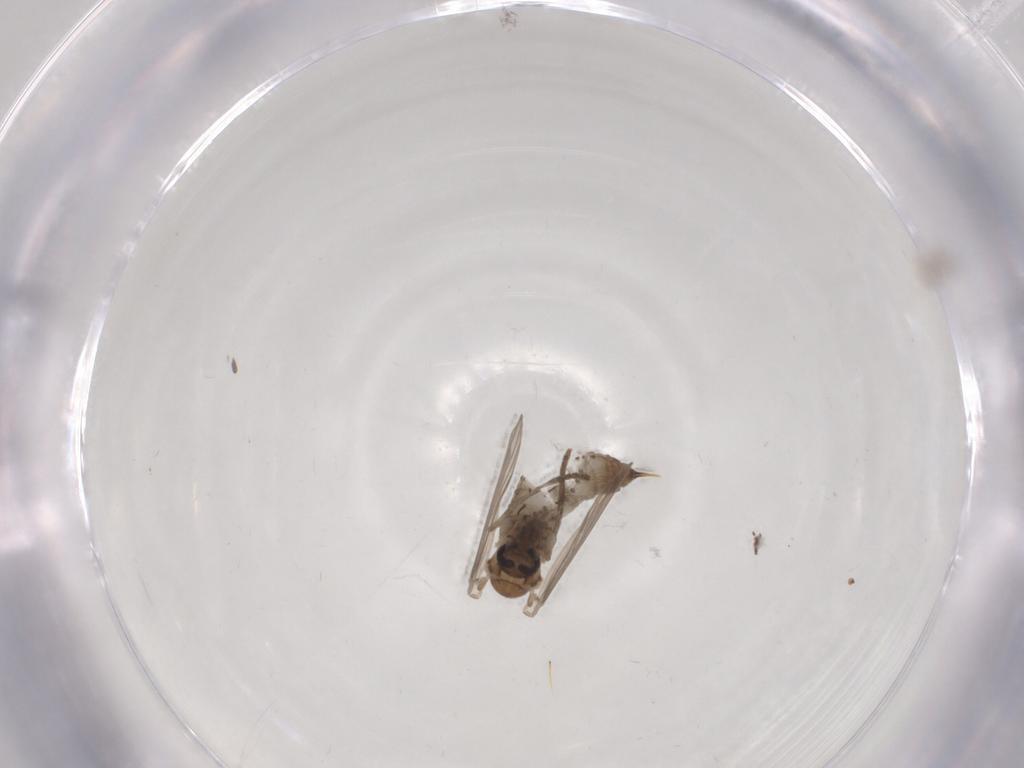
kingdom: Animalia
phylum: Arthropoda
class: Insecta
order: Diptera
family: Psychodidae
